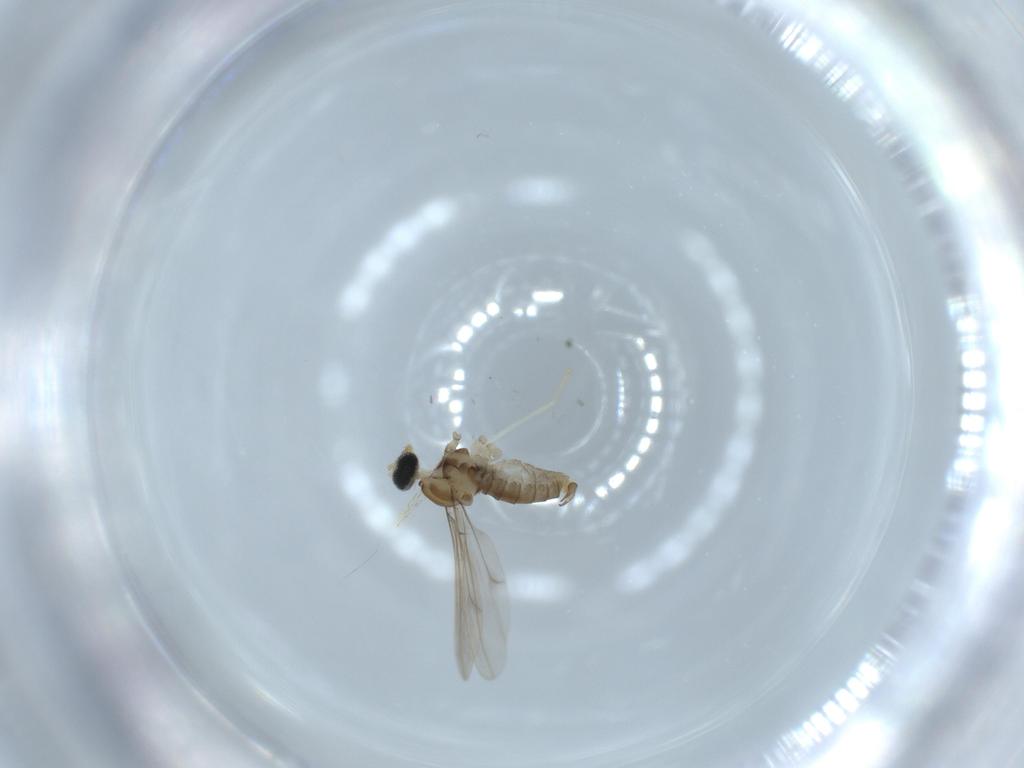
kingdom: Animalia
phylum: Arthropoda
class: Insecta
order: Diptera
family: Cecidomyiidae
